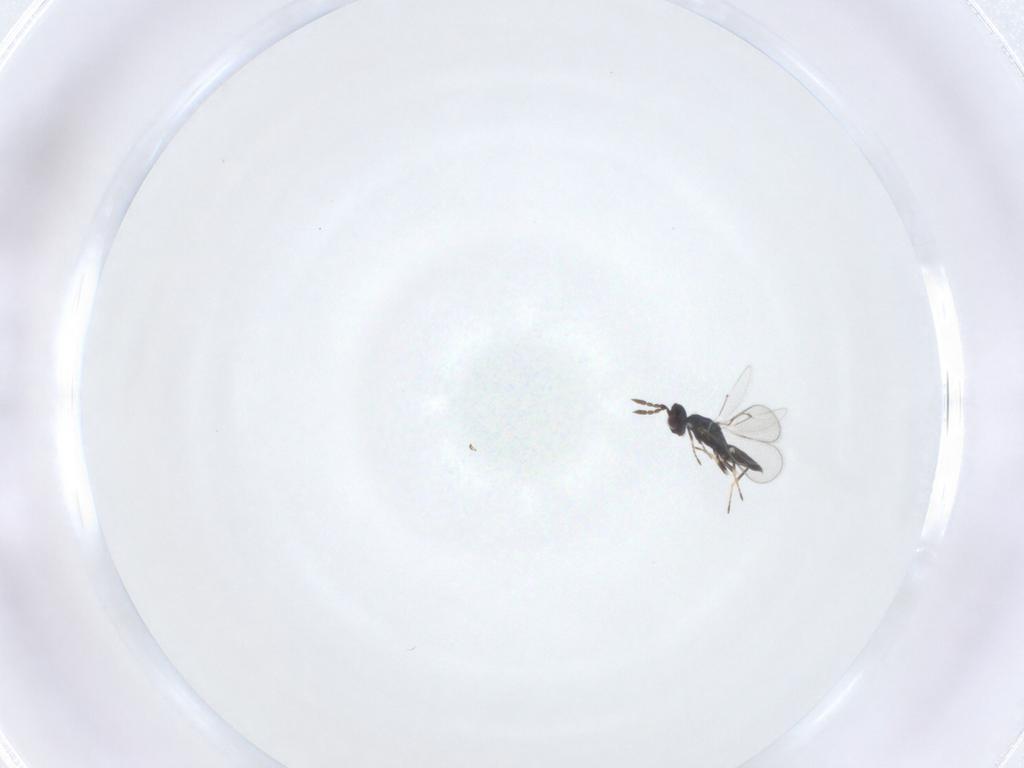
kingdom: Animalia
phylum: Arthropoda
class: Insecta
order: Hymenoptera
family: Eulophidae
